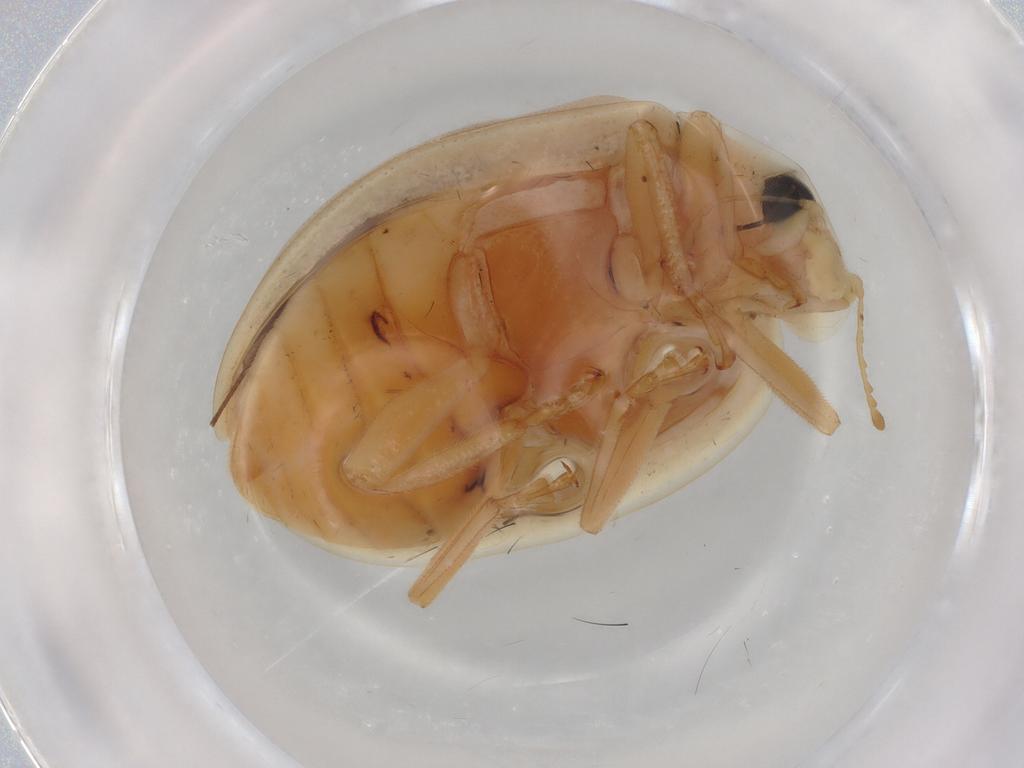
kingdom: Animalia
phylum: Arthropoda
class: Insecta
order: Coleoptera
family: Coccinellidae
